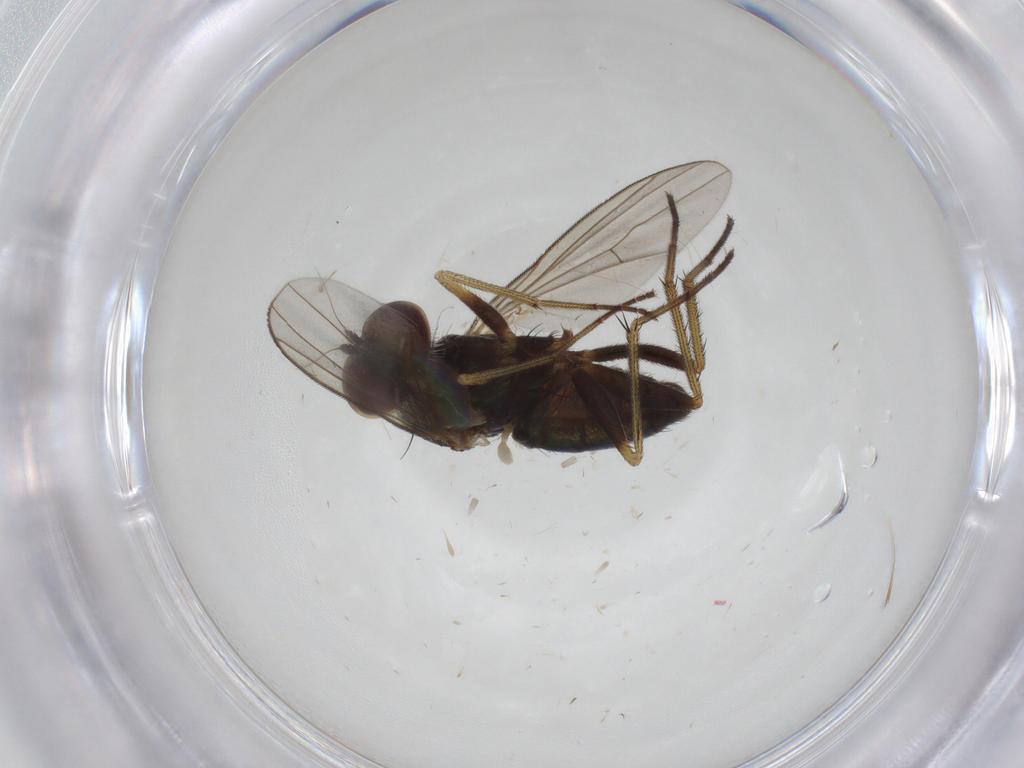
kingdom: Animalia
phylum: Arthropoda
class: Insecta
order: Diptera
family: Dolichopodidae
